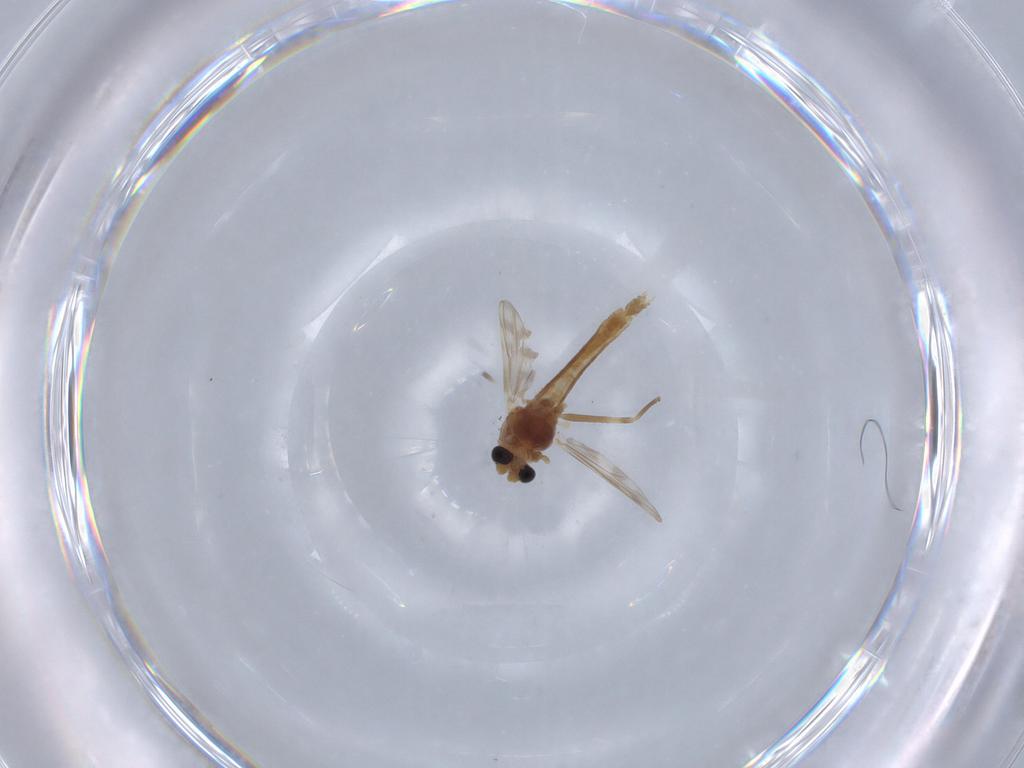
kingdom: Animalia
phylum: Arthropoda
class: Insecta
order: Diptera
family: Chironomidae
